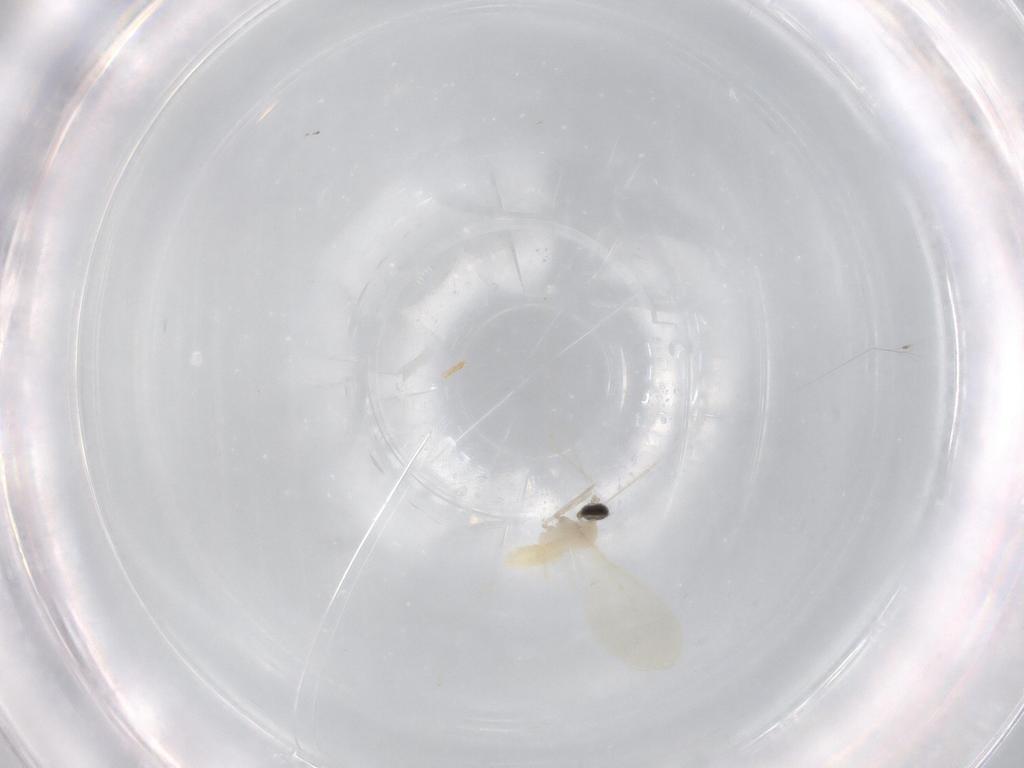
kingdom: Animalia
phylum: Arthropoda
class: Insecta
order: Diptera
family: Cecidomyiidae
